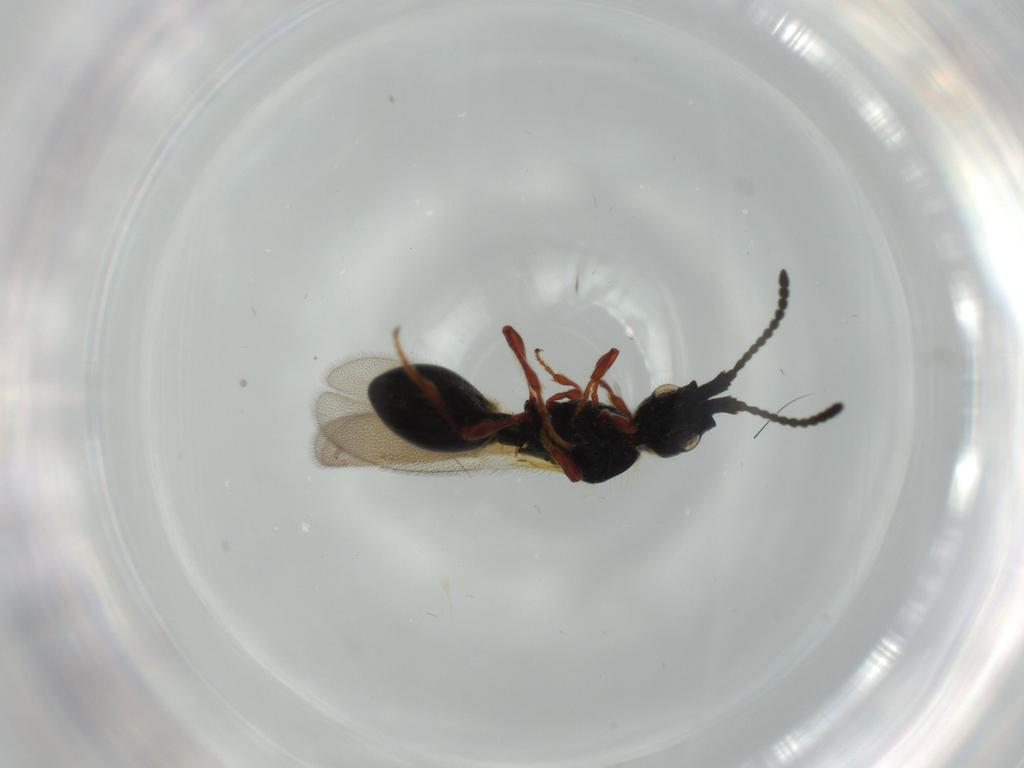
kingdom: Animalia
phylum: Arthropoda
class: Insecta
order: Hymenoptera
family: Diapriidae
